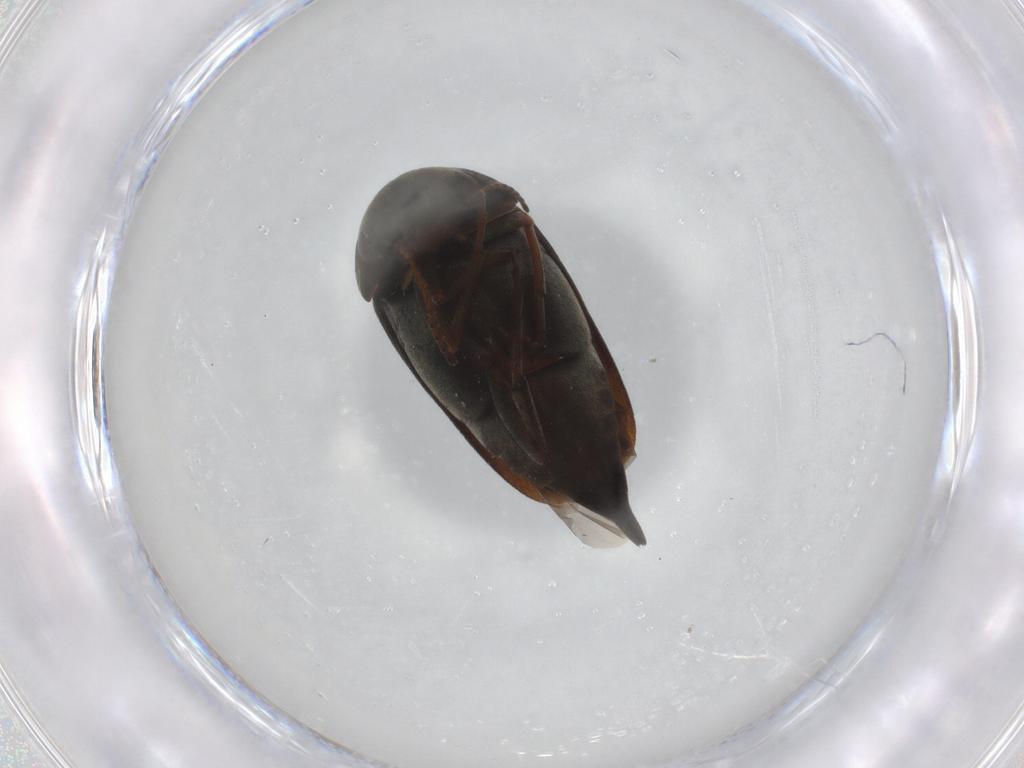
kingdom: Animalia
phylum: Arthropoda
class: Insecta
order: Coleoptera
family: Mordellidae
